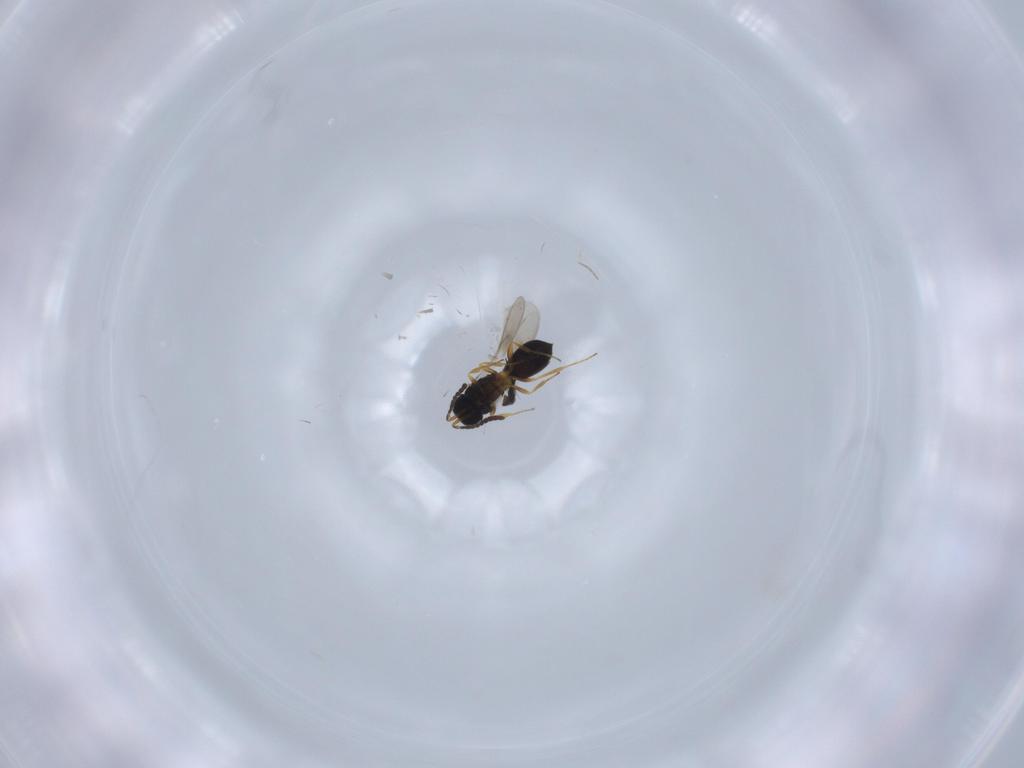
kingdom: Animalia
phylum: Arthropoda
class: Insecta
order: Hymenoptera
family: Scelionidae
